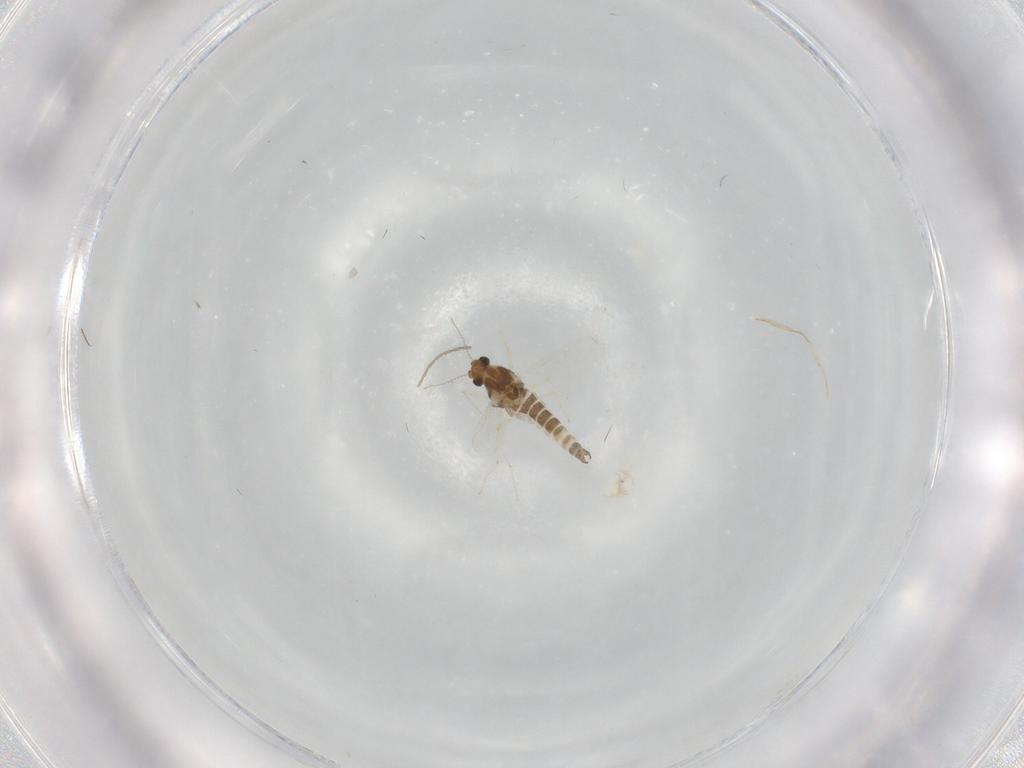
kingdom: Animalia
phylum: Arthropoda
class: Insecta
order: Diptera
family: Chironomidae
